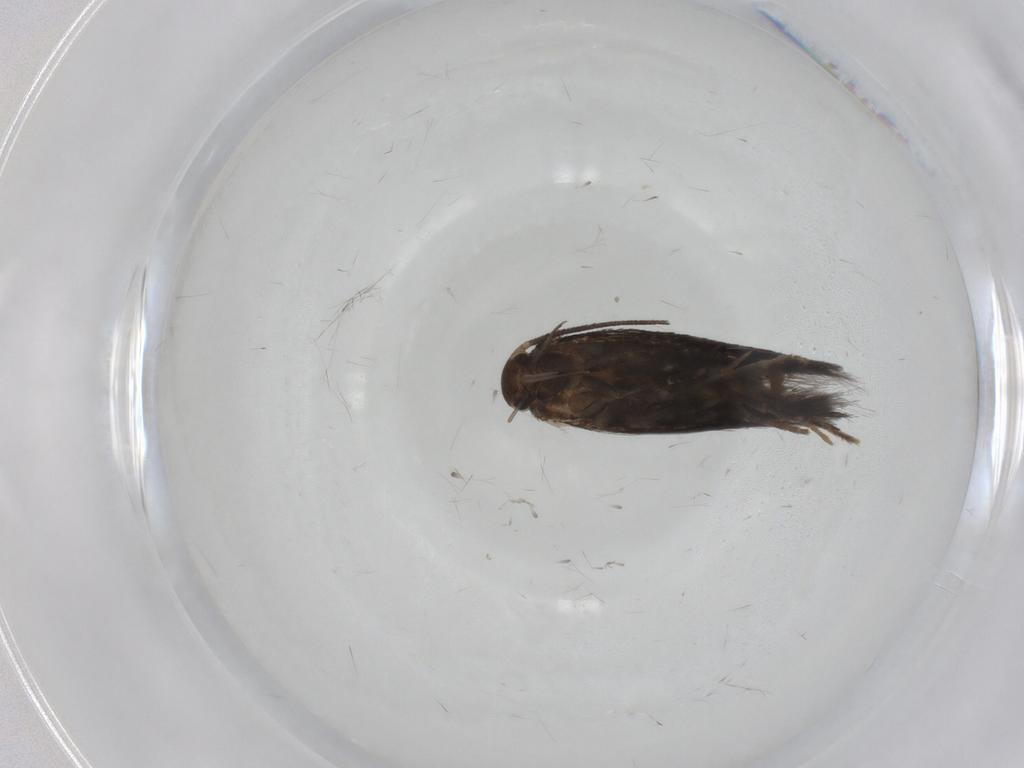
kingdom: Animalia
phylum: Arthropoda
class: Insecta
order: Lepidoptera
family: Elachistidae
